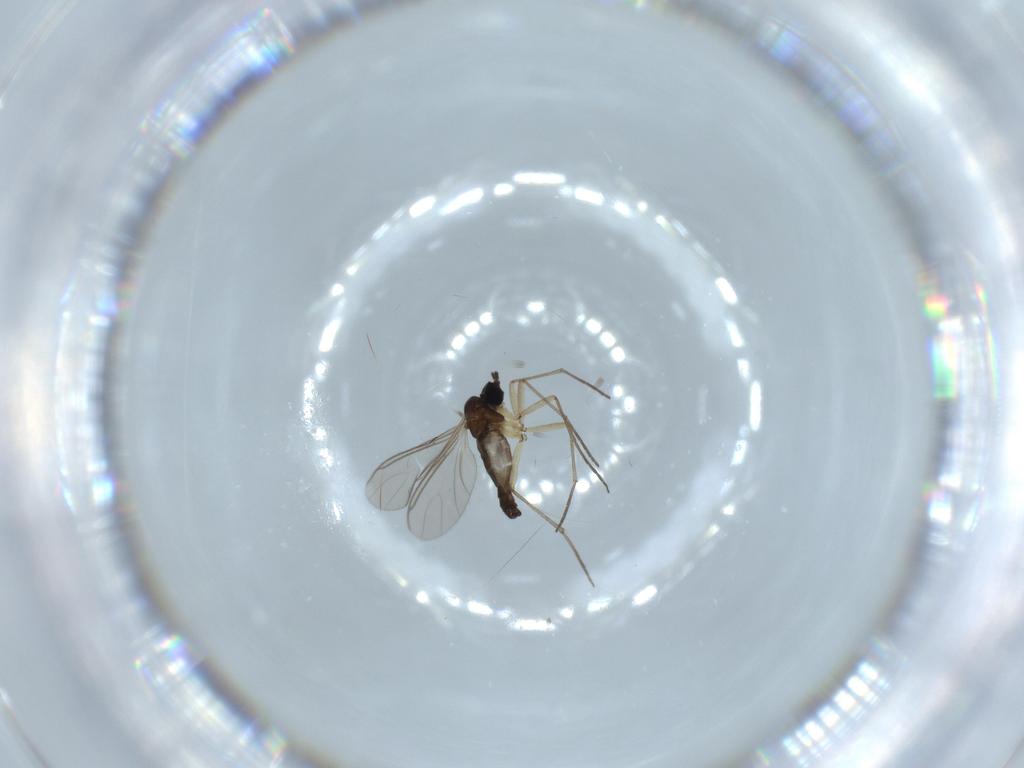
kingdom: Animalia
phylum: Arthropoda
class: Insecta
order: Diptera
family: Sciaridae
